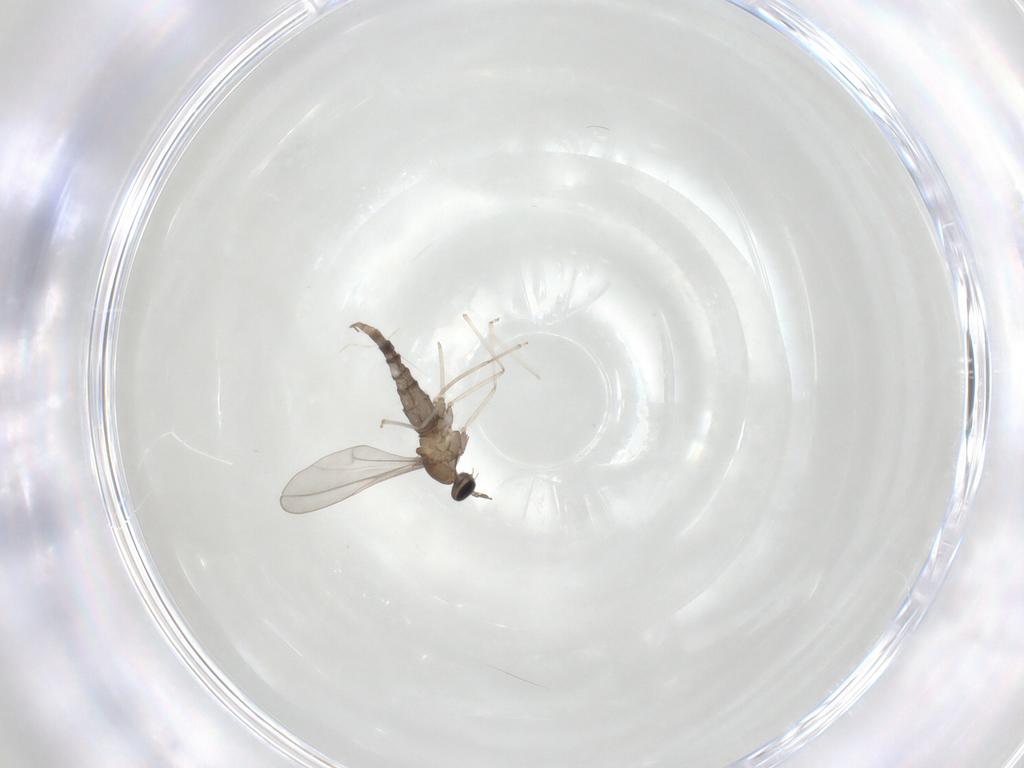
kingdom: Animalia
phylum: Arthropoda
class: Insecta
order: Diptera
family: Cecidomyiidae
